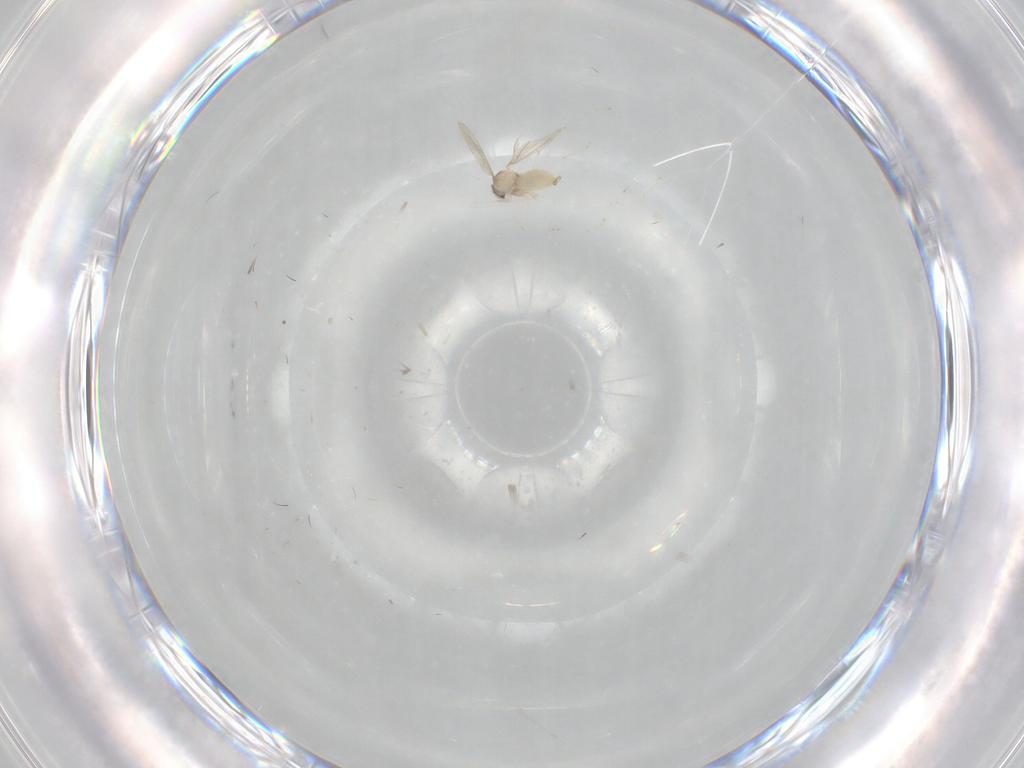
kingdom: Animalia
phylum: Arthropoda
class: Insecta
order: Diptera
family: Cecidomyiidae
